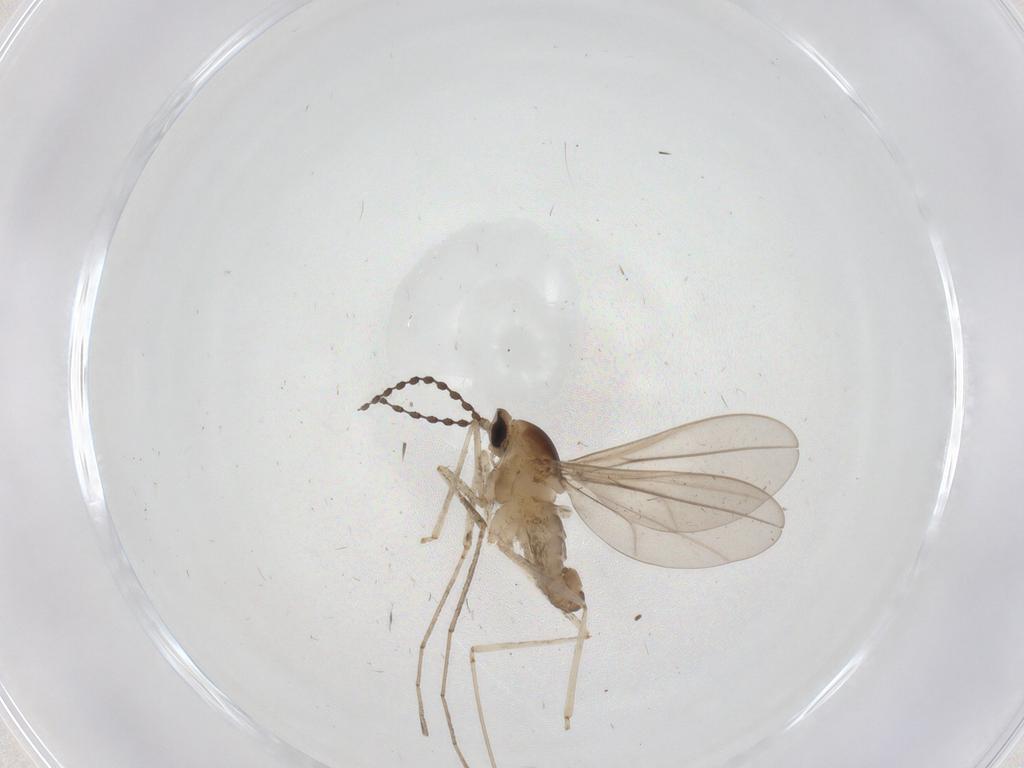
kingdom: Animalia
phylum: Arthropoda
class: Insecta
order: Diptera
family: Cecidomyiidae
